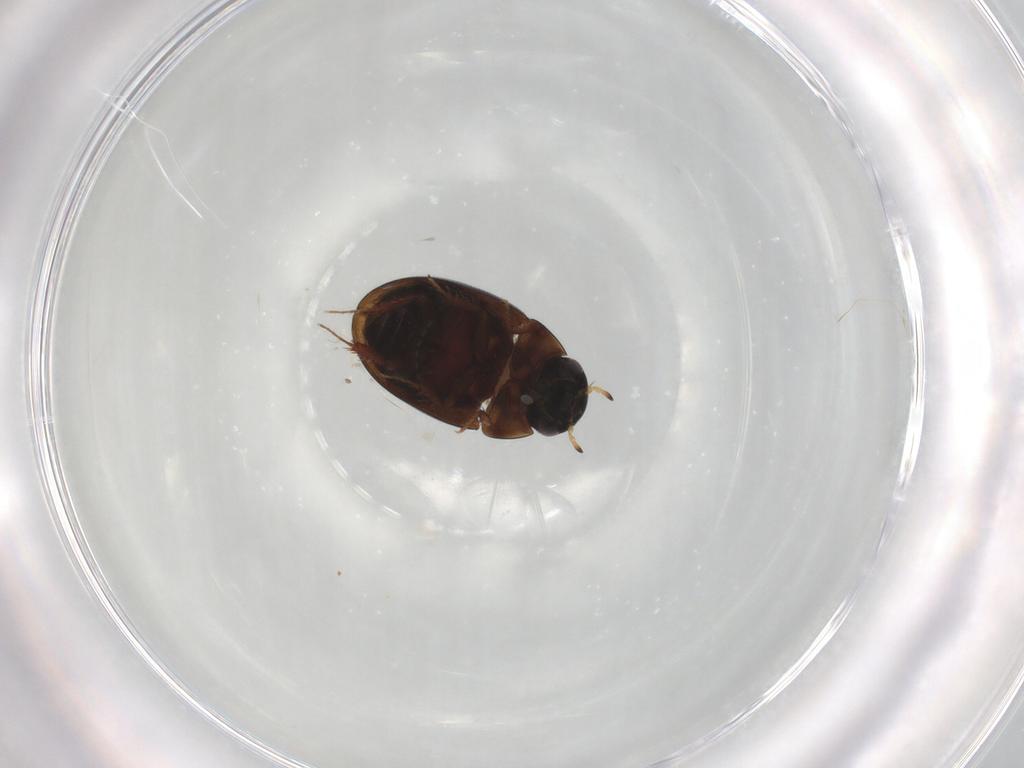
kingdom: Animalia
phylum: Arthropoda
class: Insecta
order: Coleoptera
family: Hydrophilidae
